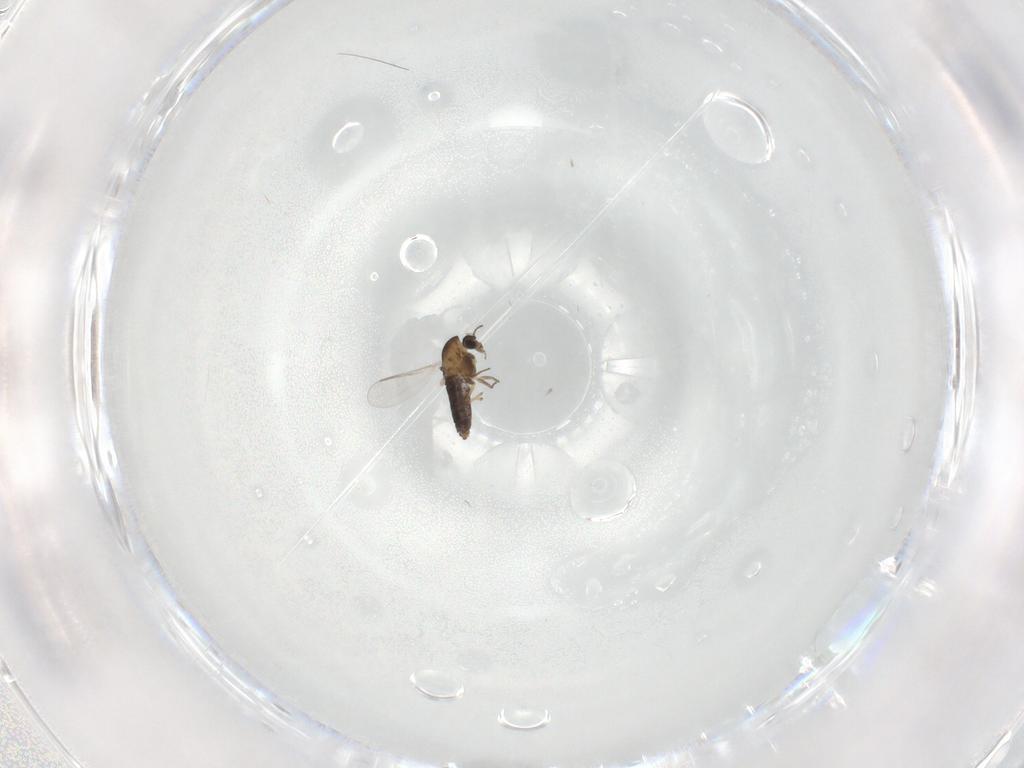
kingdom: Animalia
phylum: Arthropoda
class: Insecta
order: Diptera
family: Chironomidae
